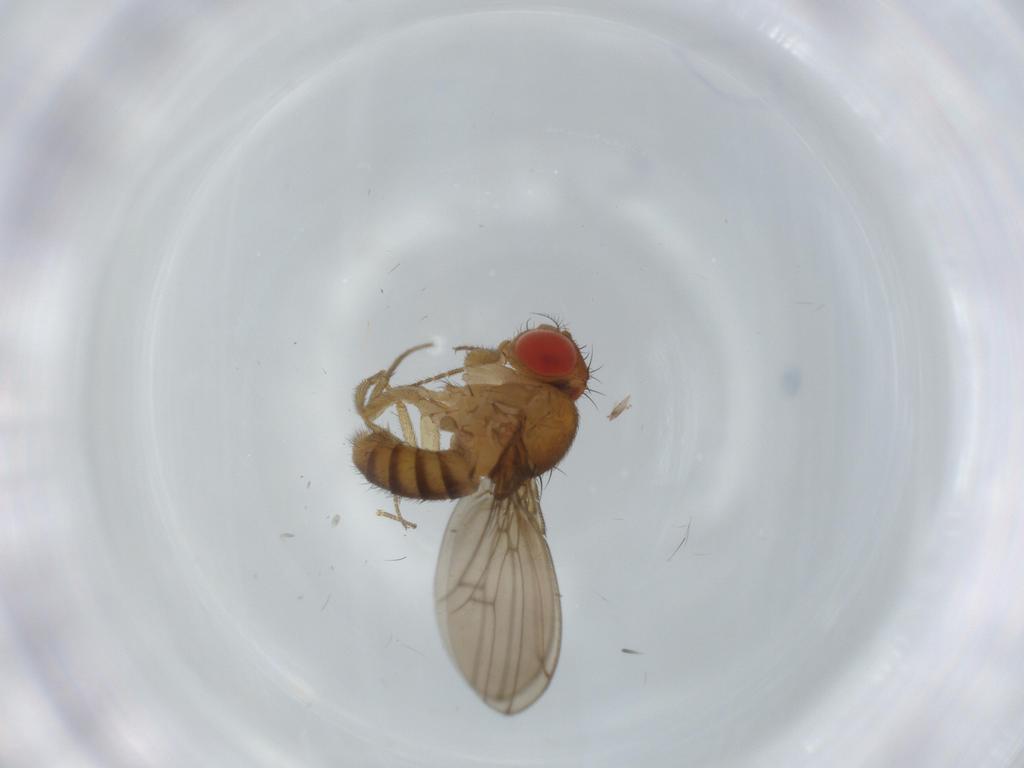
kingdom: Animalia
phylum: Arthropoda
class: Insecta
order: Diptera
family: Drosophilidae
